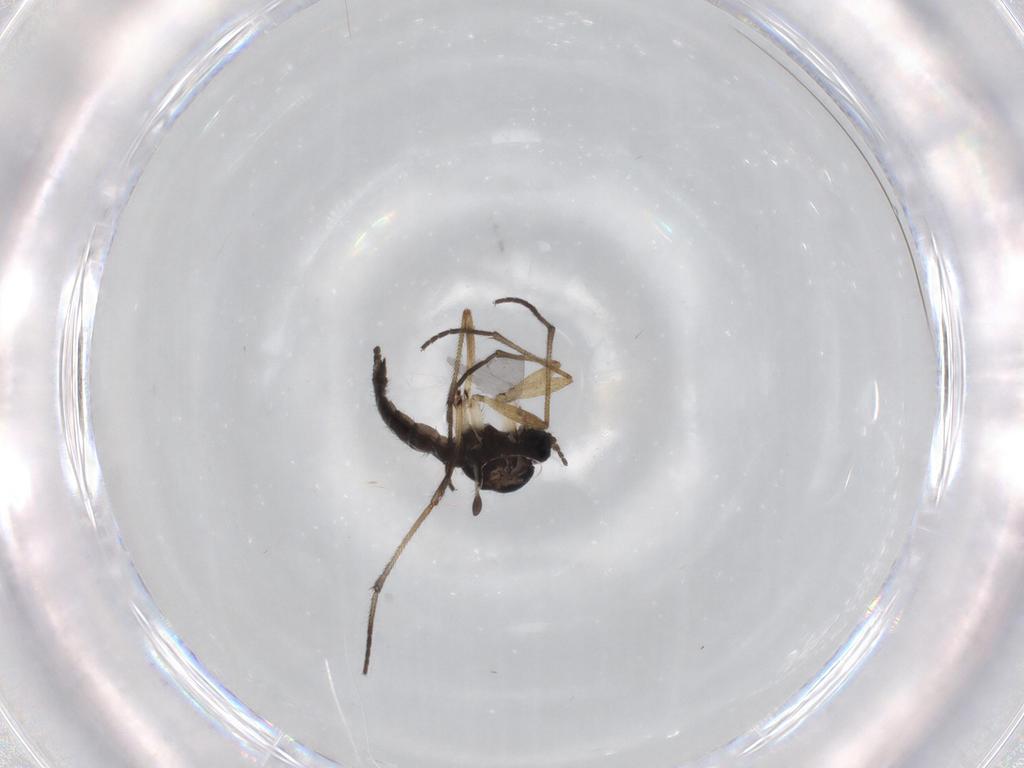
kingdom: Animalia
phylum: Arthropoda
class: Insecta
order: Diptera
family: Sciaridae
